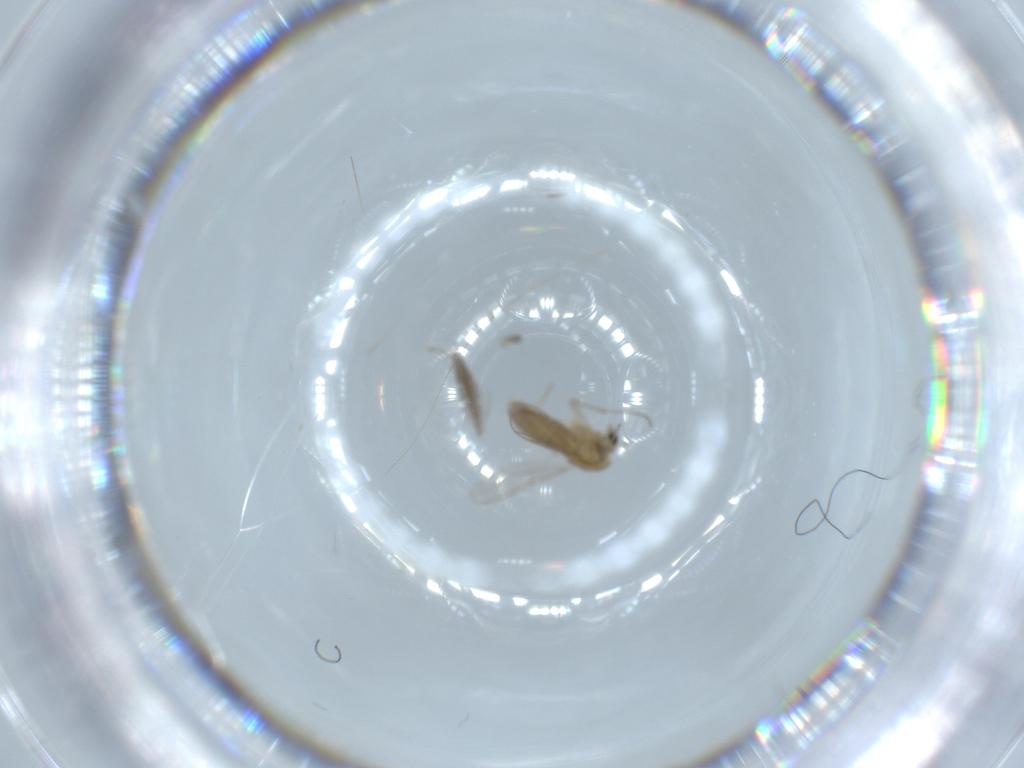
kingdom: Animalia
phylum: Arthropoda
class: Insecta
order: Diptera
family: Chironomidae
